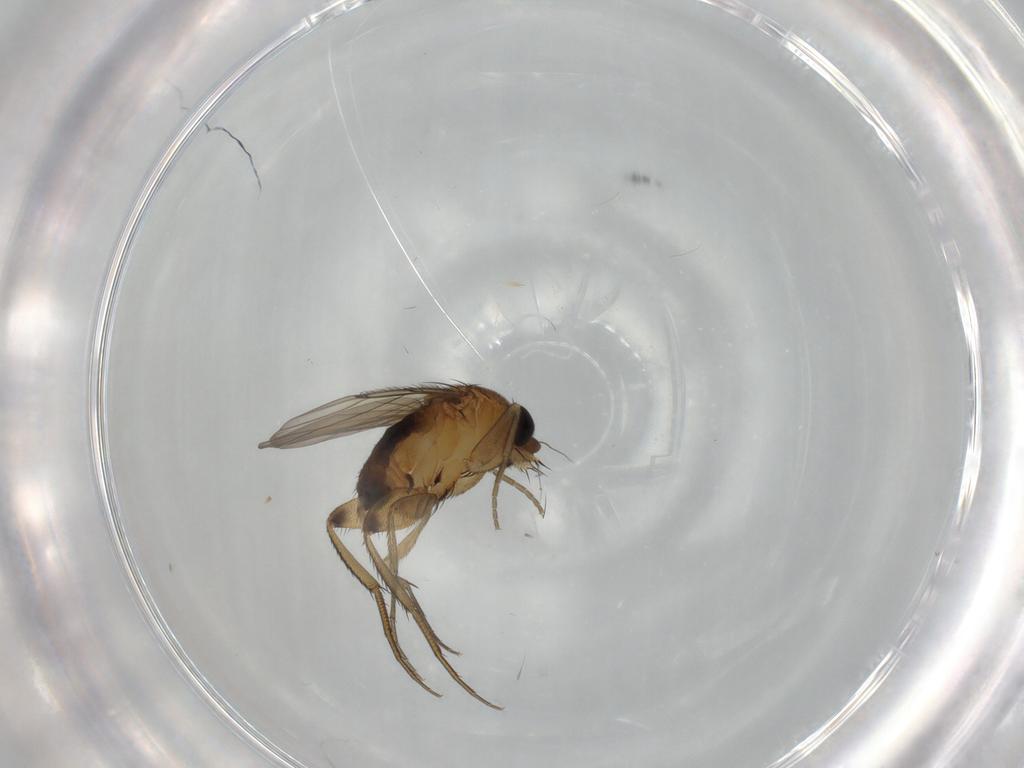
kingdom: Animalia
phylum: Arthropoda
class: Insecta
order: Diptera
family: Phoridae
